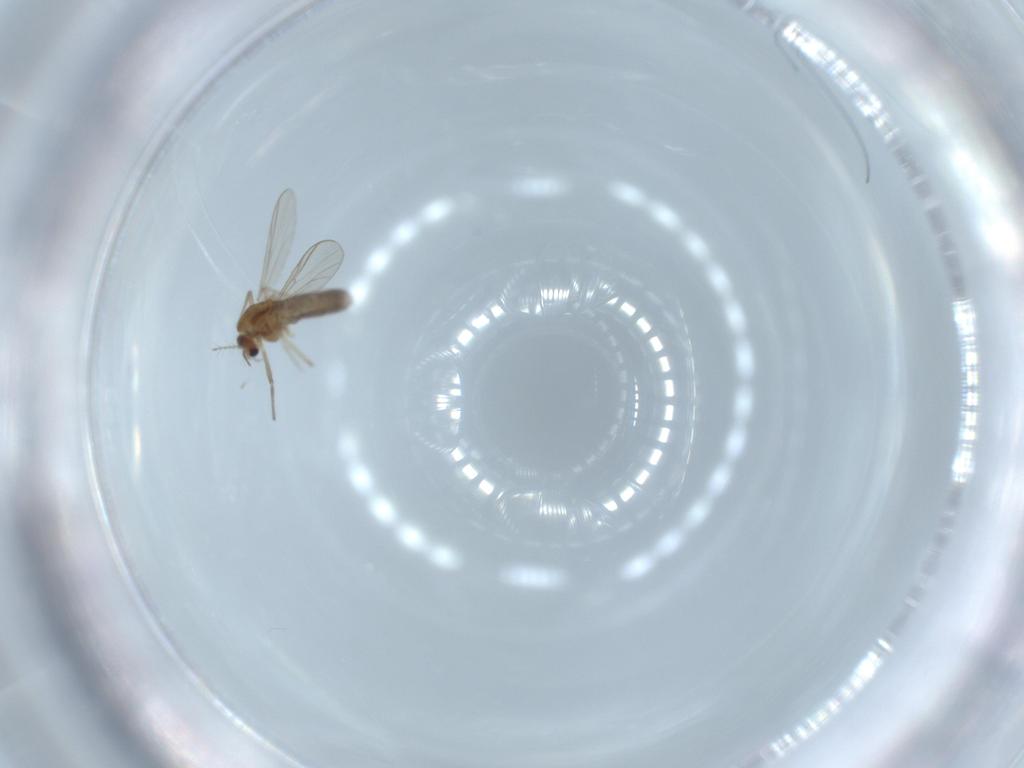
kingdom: Animalia
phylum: Arthropoda
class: Insecta
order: Diptera
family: Chironomidae
